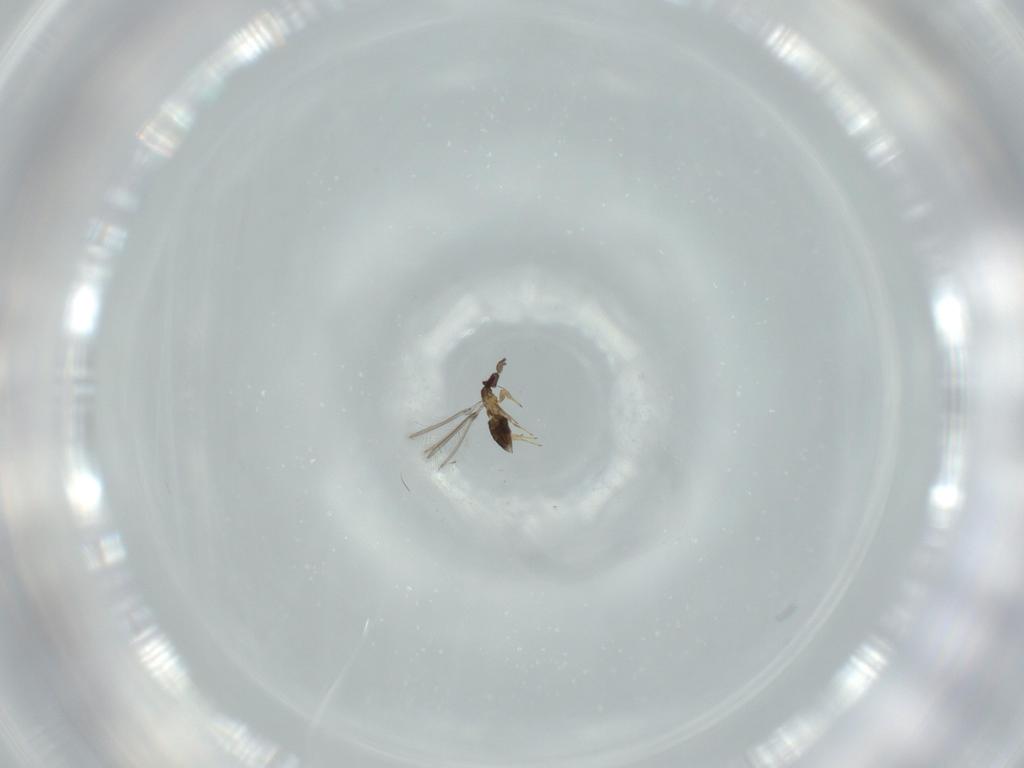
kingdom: Animalia
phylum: Arthropoda
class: Insecta
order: Hymenoptera
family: Mymaridae
